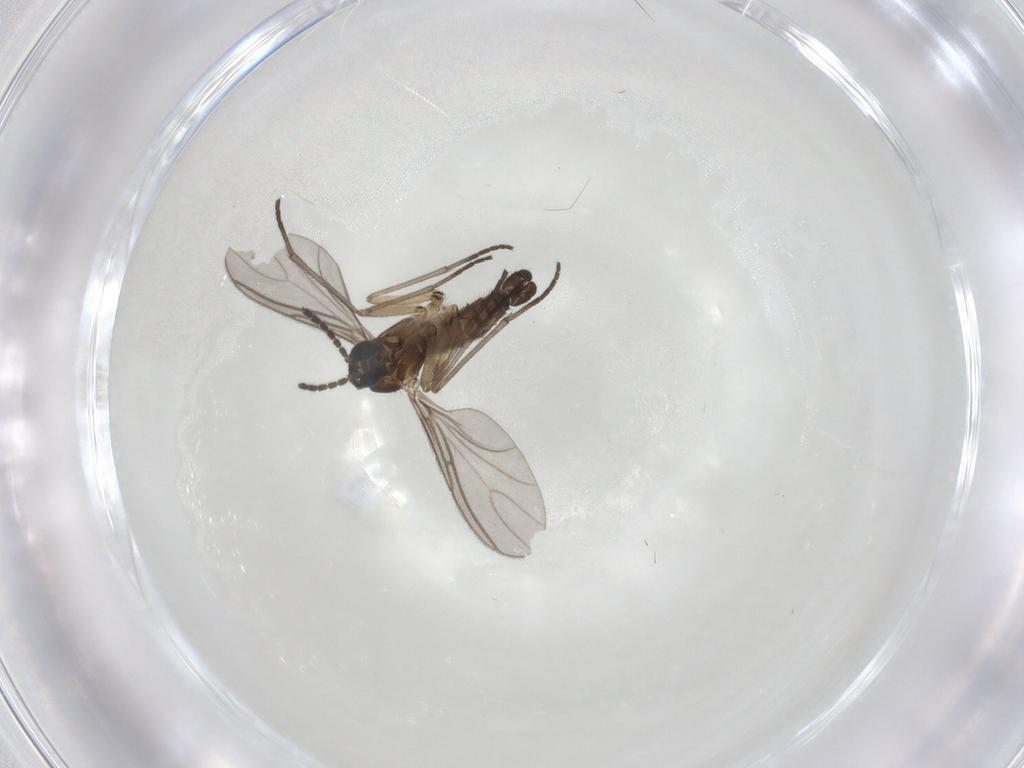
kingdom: Animalia
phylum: Arthropoda
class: Insecta
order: Diptera
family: Sciaridae
